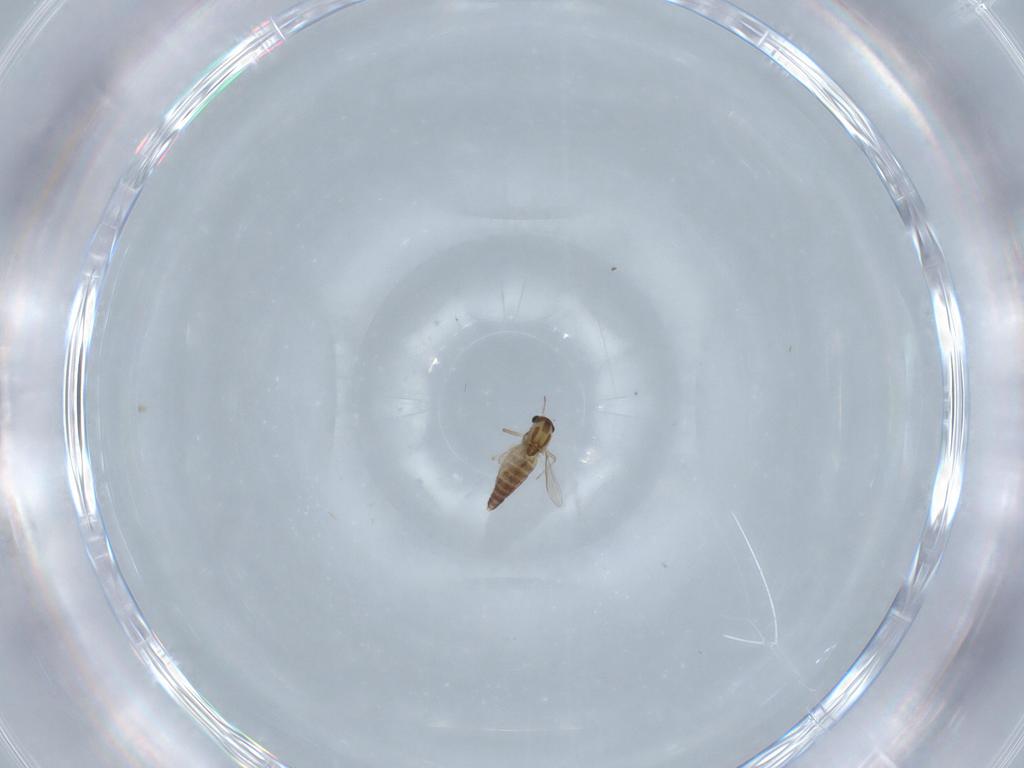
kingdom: Animalia
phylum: Arthropoda
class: Insecta
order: Diptera
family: Chironomidae
